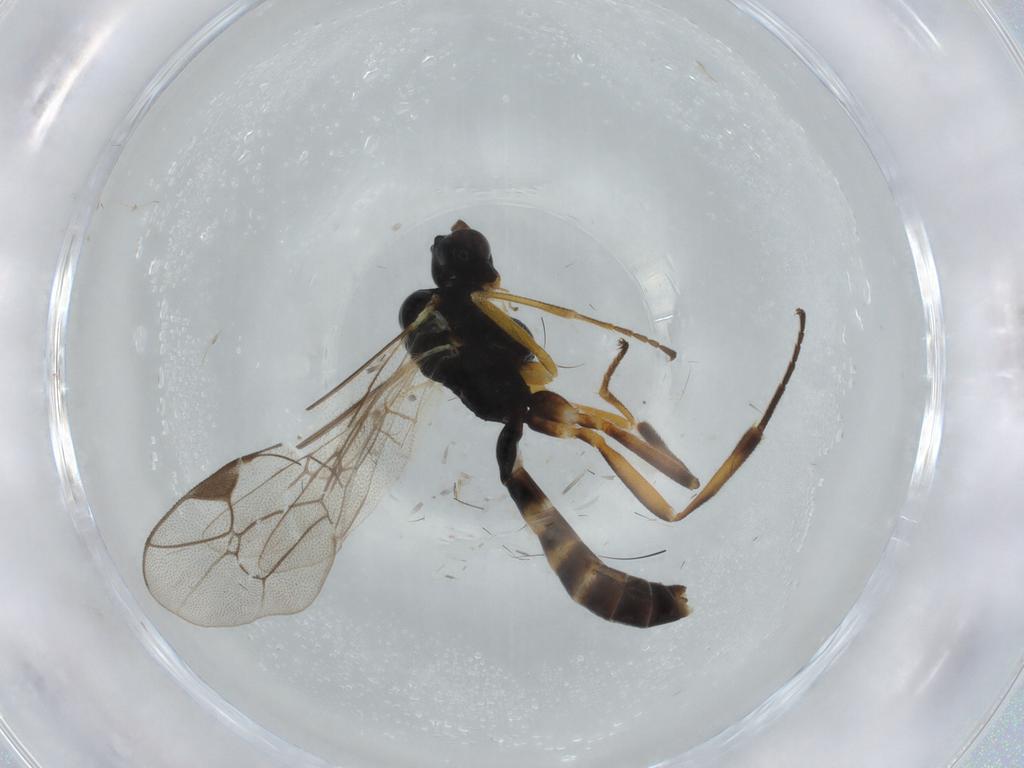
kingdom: Animalia
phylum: Arthropoda
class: Insecta
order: Hymenoptera
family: Ichneumonidae
